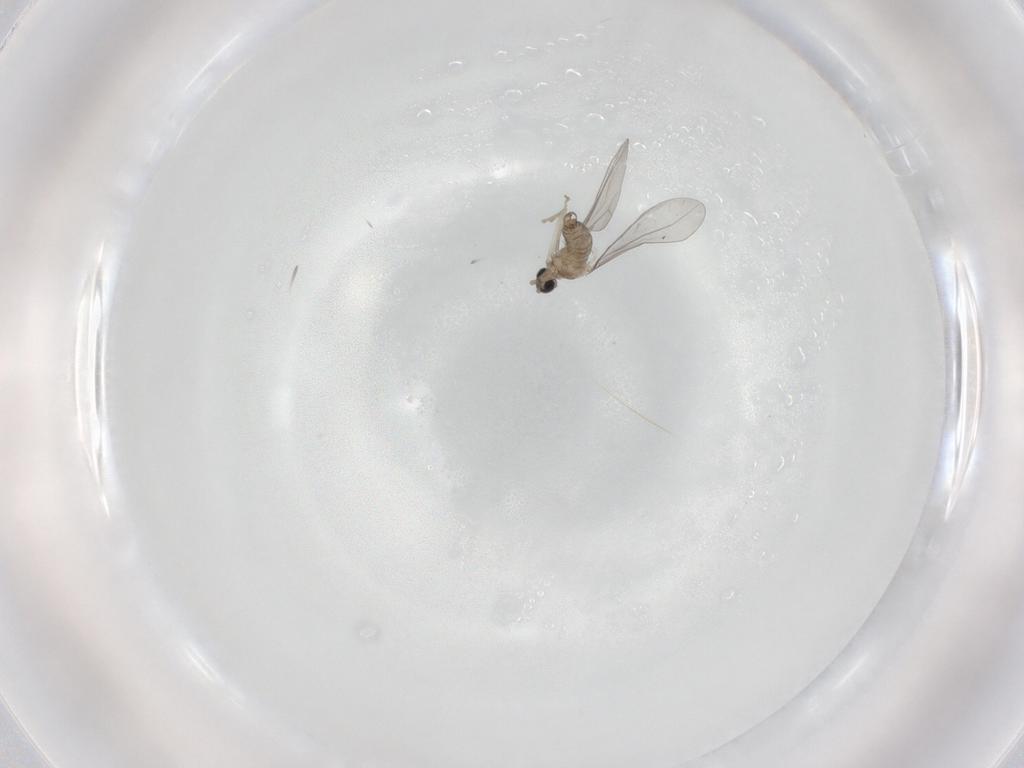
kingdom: Animalia
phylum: Arthropoda
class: Insecta
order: Diptera
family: Cecidomyiidae
